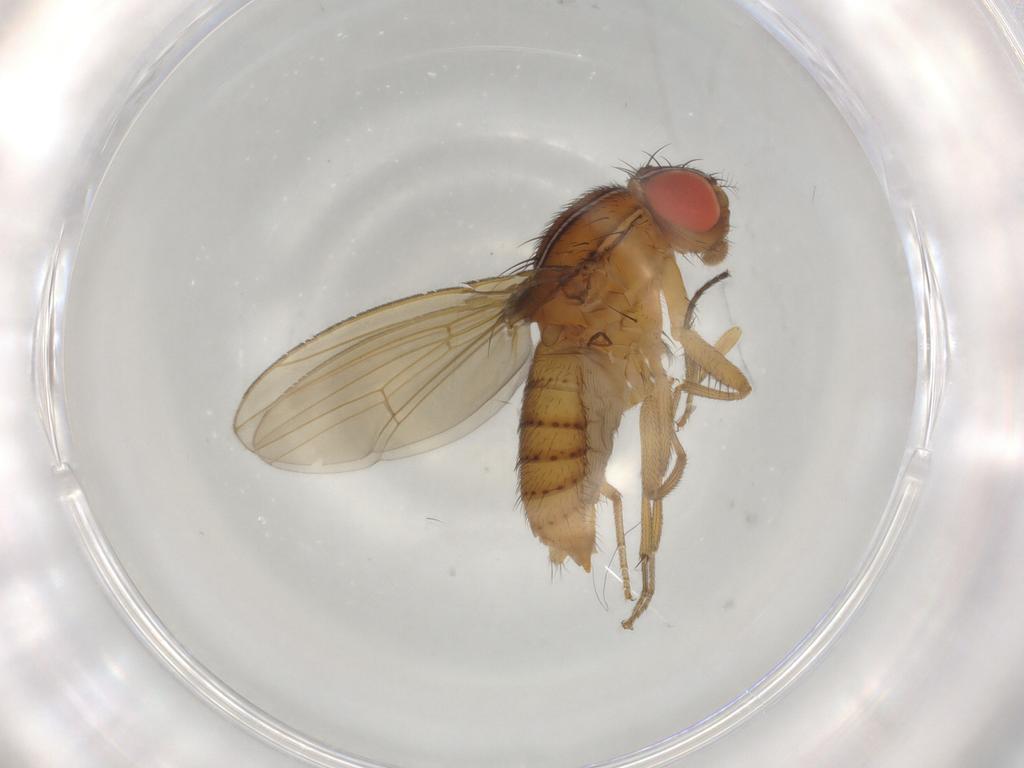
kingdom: Animalia
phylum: Arthropoda
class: Insecta
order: Diptera
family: Drosophilidae
